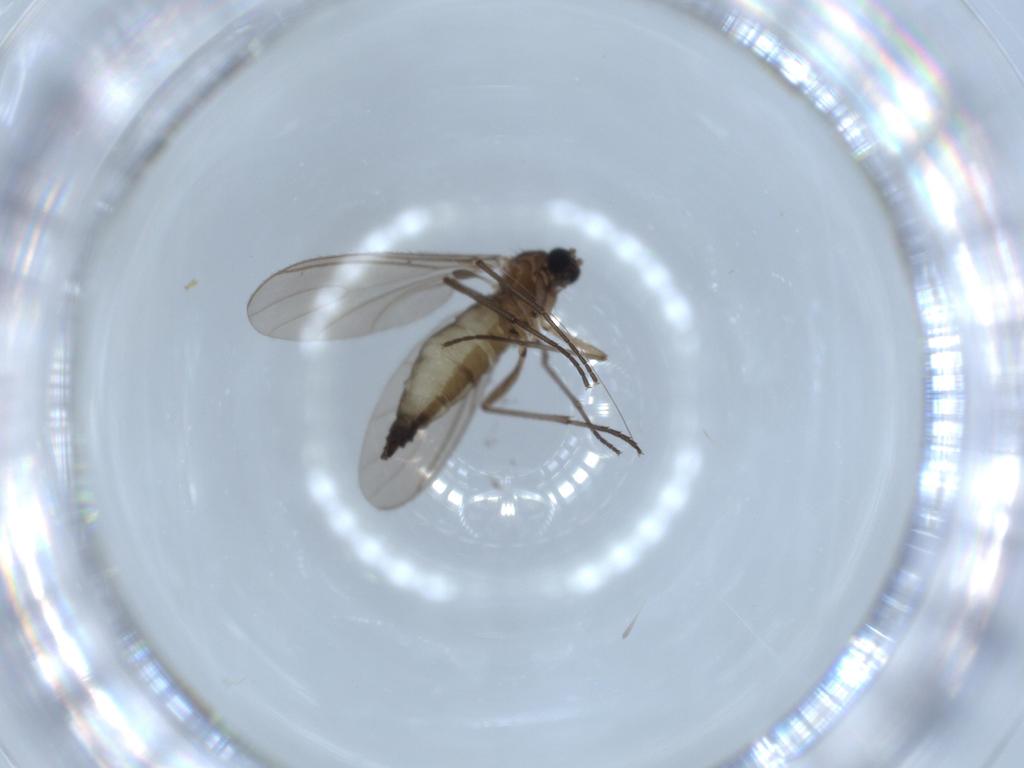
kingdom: Animalia
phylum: Arthropoda
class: Insecta
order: Diptera
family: Sciaridae
